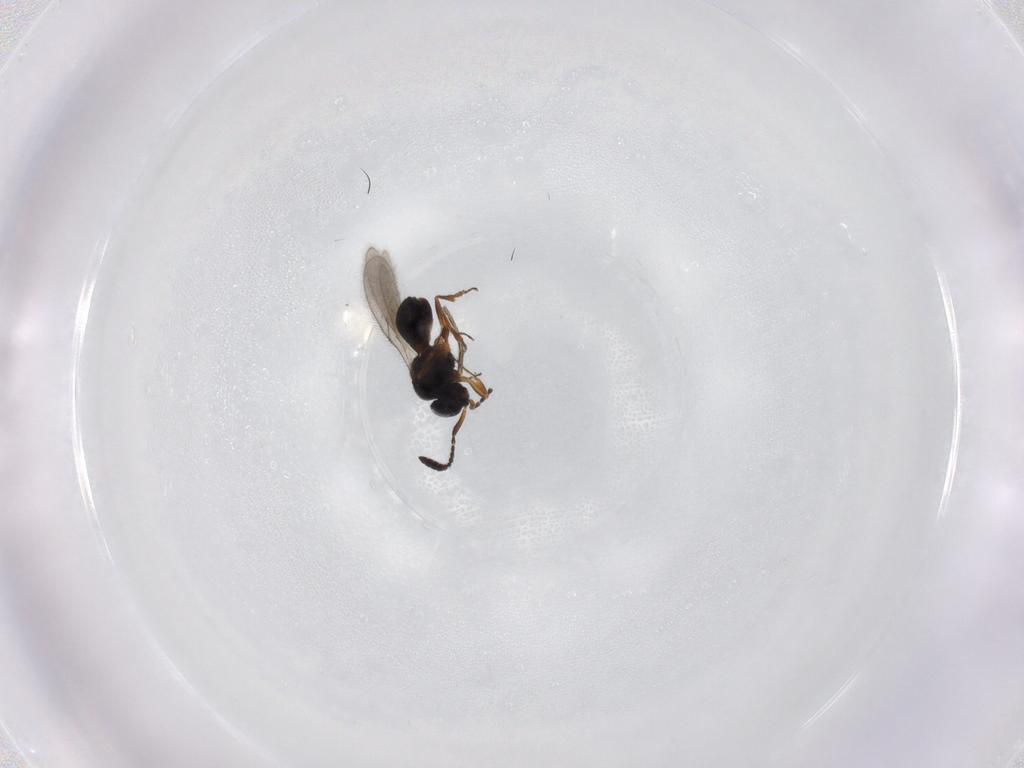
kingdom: Animalia
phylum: Arthropoda
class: Insecta
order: Hymenoptera
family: Scelionidae
